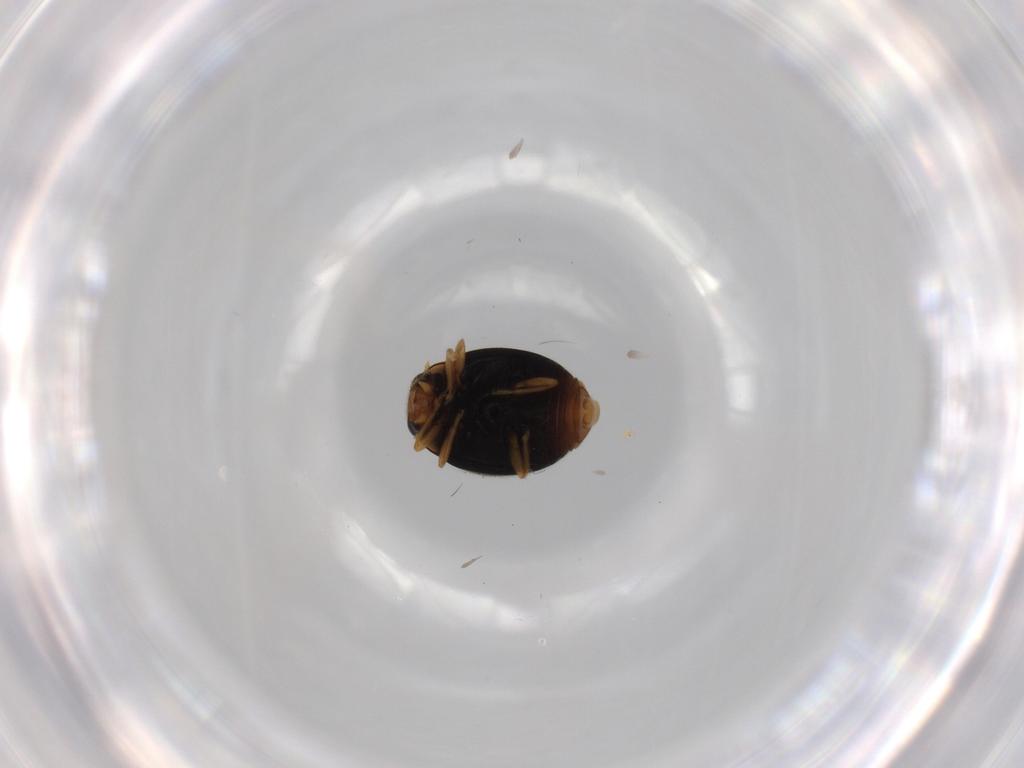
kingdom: Animalia
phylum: Arthropoda
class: Insecta
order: Coleoptera
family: Coccinellidae
